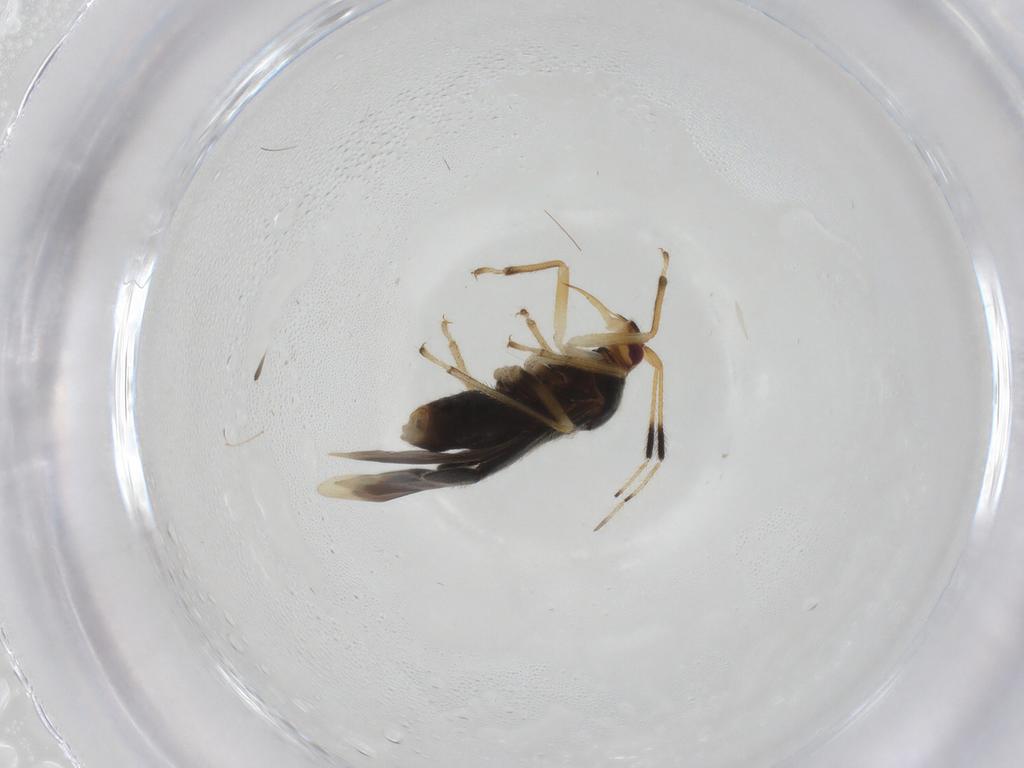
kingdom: Animalia
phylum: Arthropoda
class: Insecta
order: Hemiptera
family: Miridae
